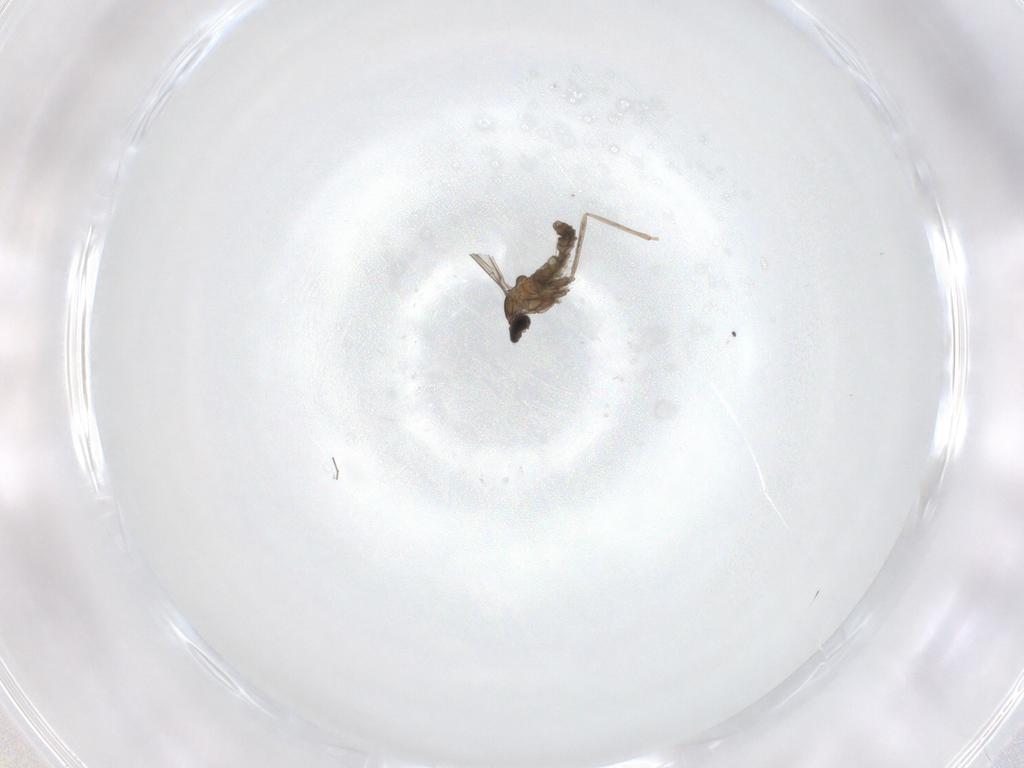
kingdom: Animalia
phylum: Arthropoda
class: Insecta
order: Diptera
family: Cecidomyiidae
